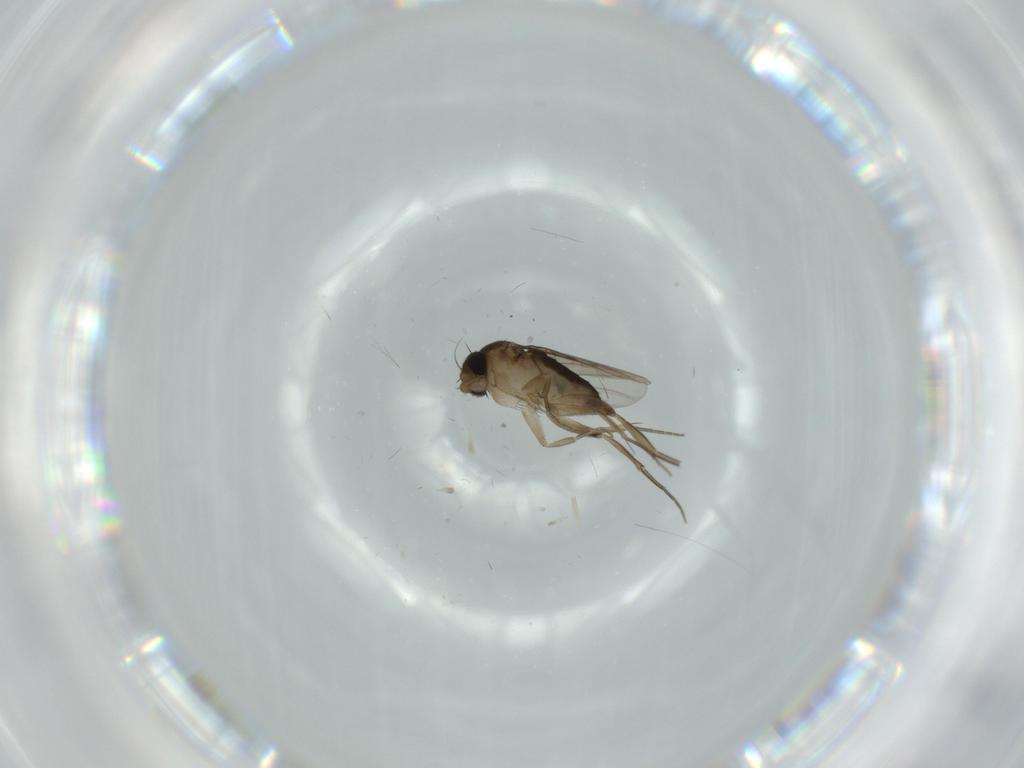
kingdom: Animalia
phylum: Arthropoda
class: Insecta
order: Diptera
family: Phoridae
